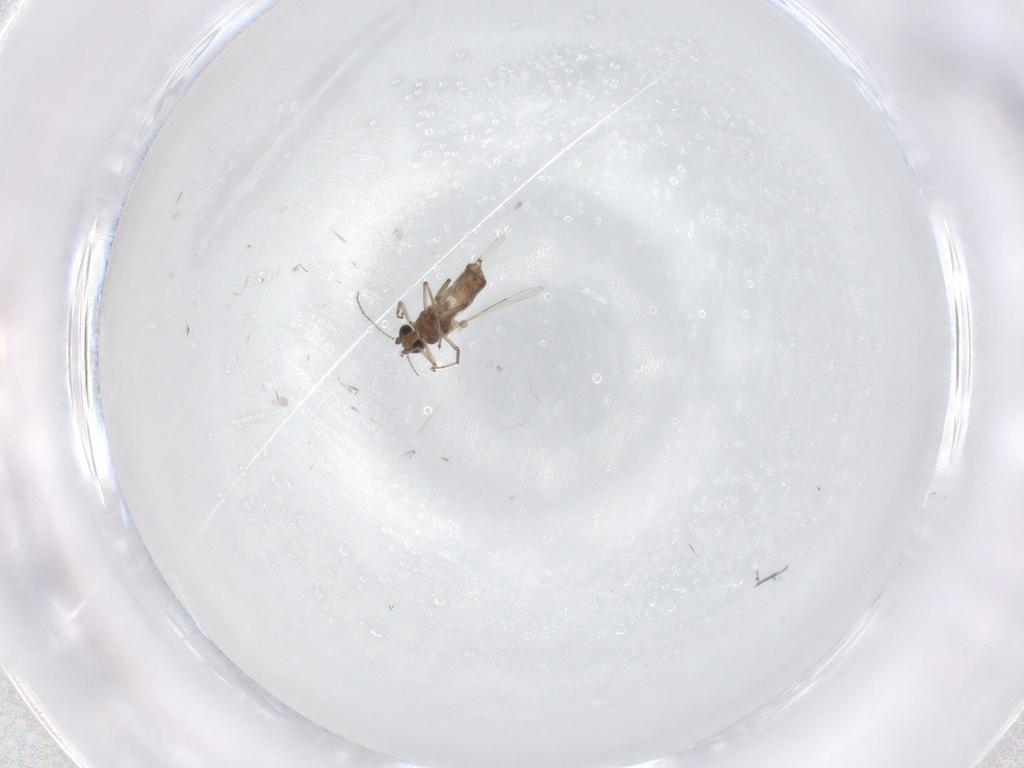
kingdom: Animalia
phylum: Arthropoda
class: Insecta
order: Diptera
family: Ceratopogonidae
